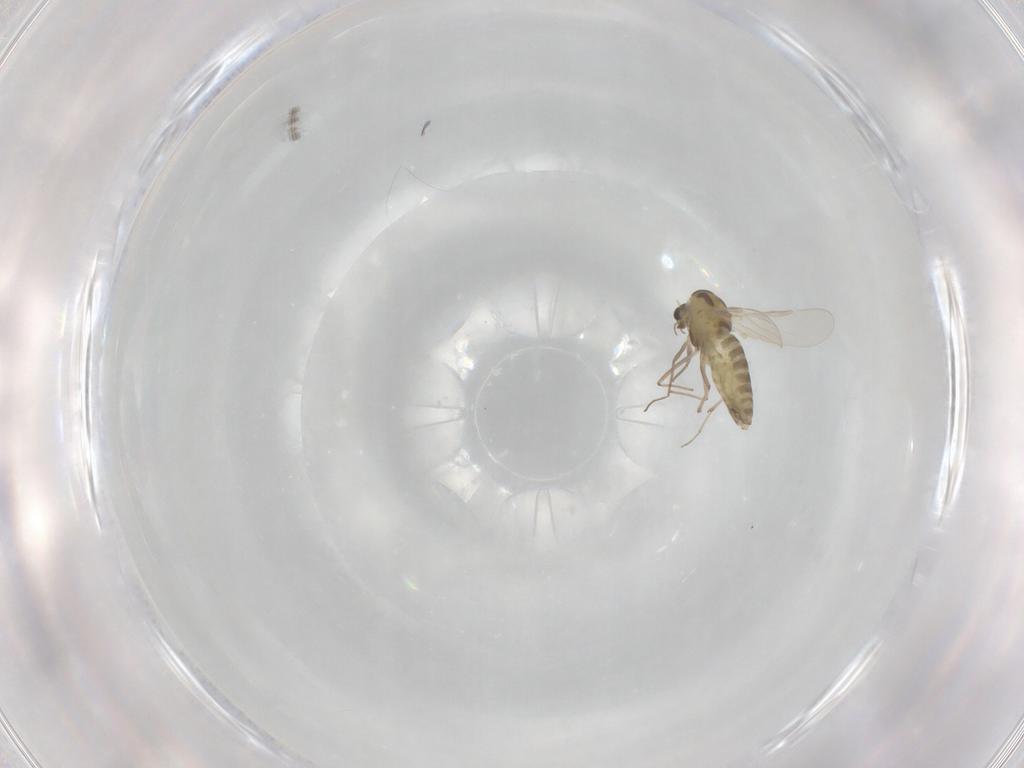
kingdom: Animalia
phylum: Arthropoda
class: Insecta
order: Diptera
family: Chironomidae
